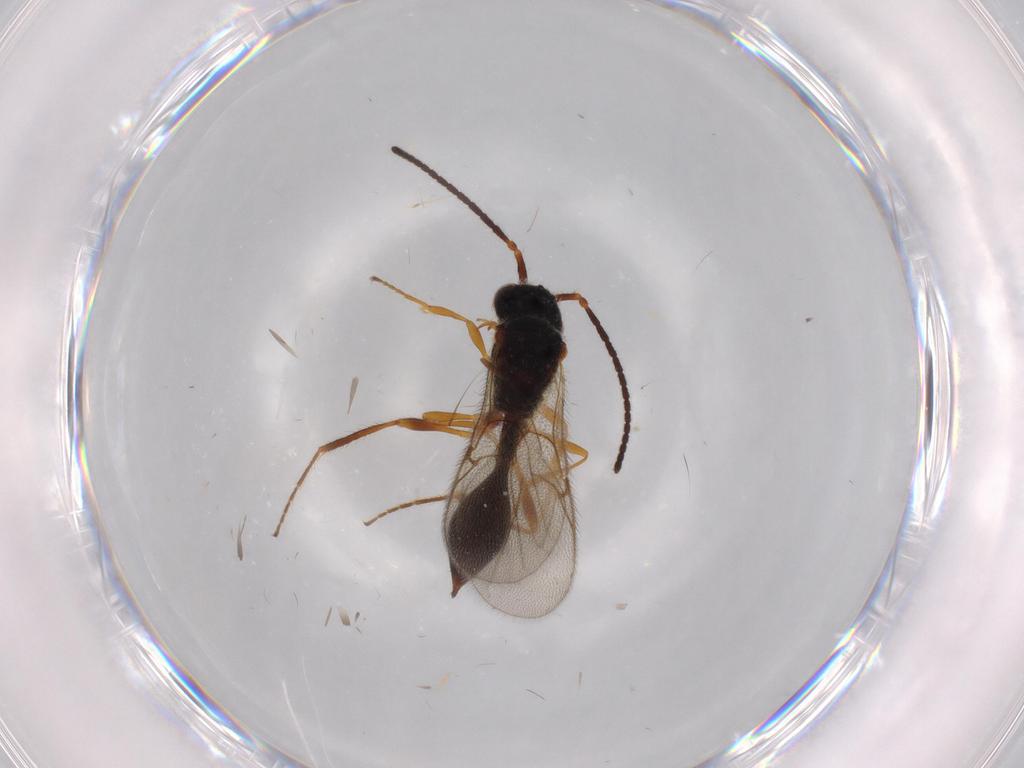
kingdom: Animalia
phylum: Arthropoda
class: Insecta
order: Hymenoptera
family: Diapriidae
